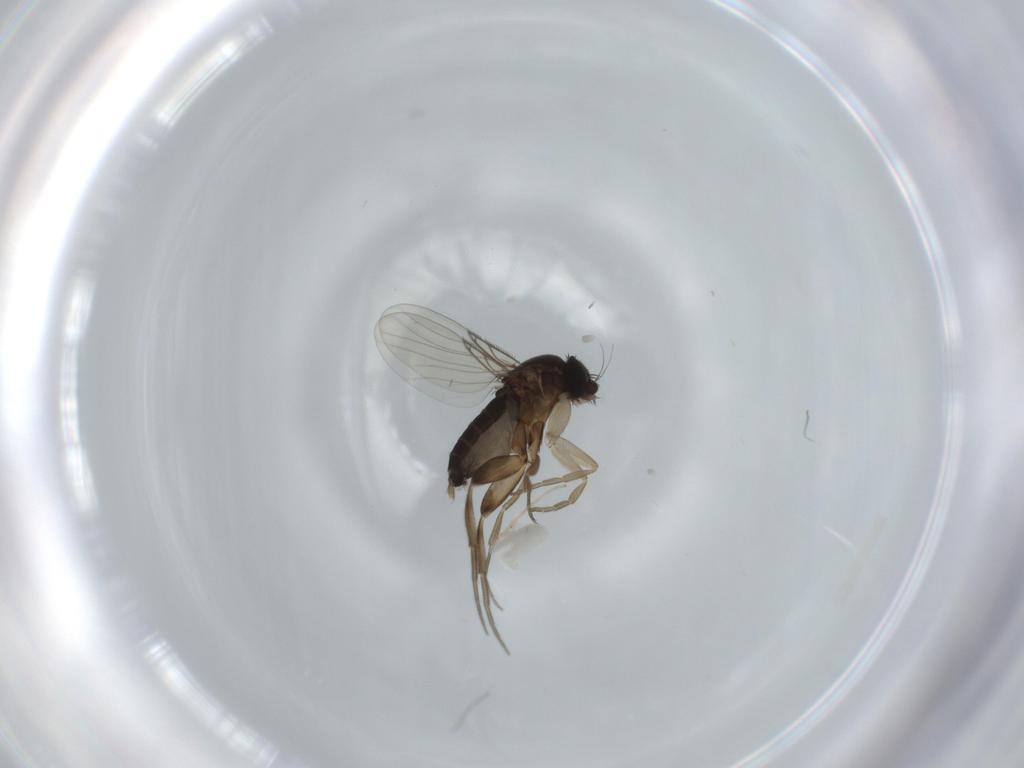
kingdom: Animalia
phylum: Arthropoda
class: Insecta
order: Diptera
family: Phoridae
